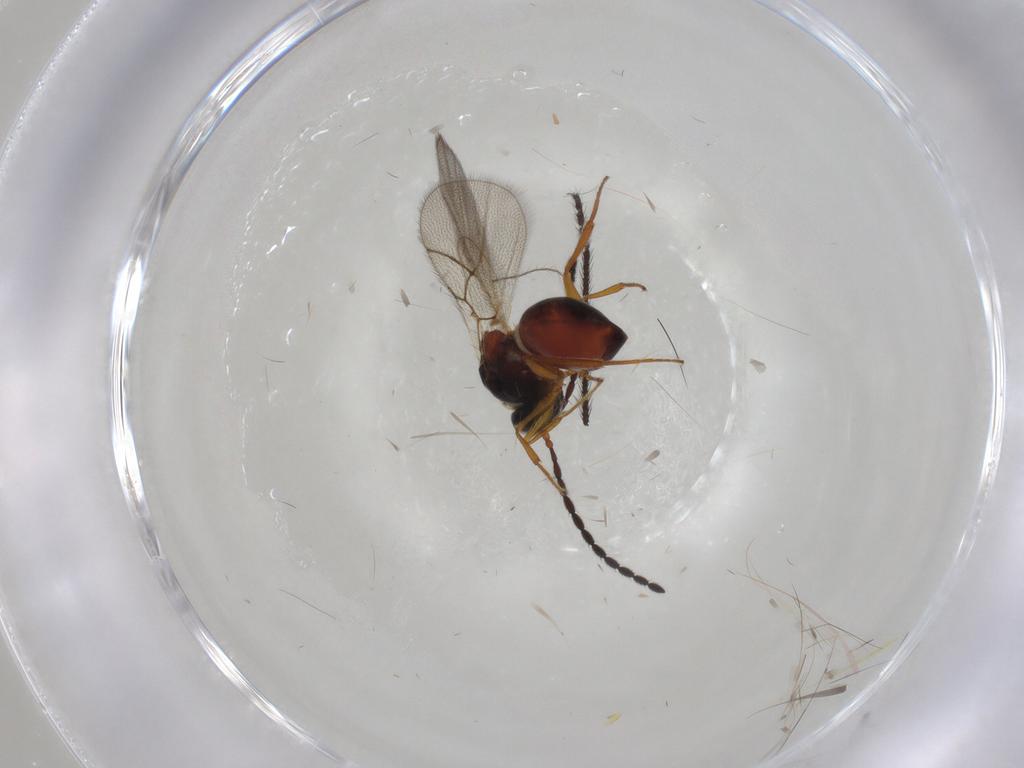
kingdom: Animalia
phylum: Arthropoda
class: Insecta
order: Hymenoptera
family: Figitidae
